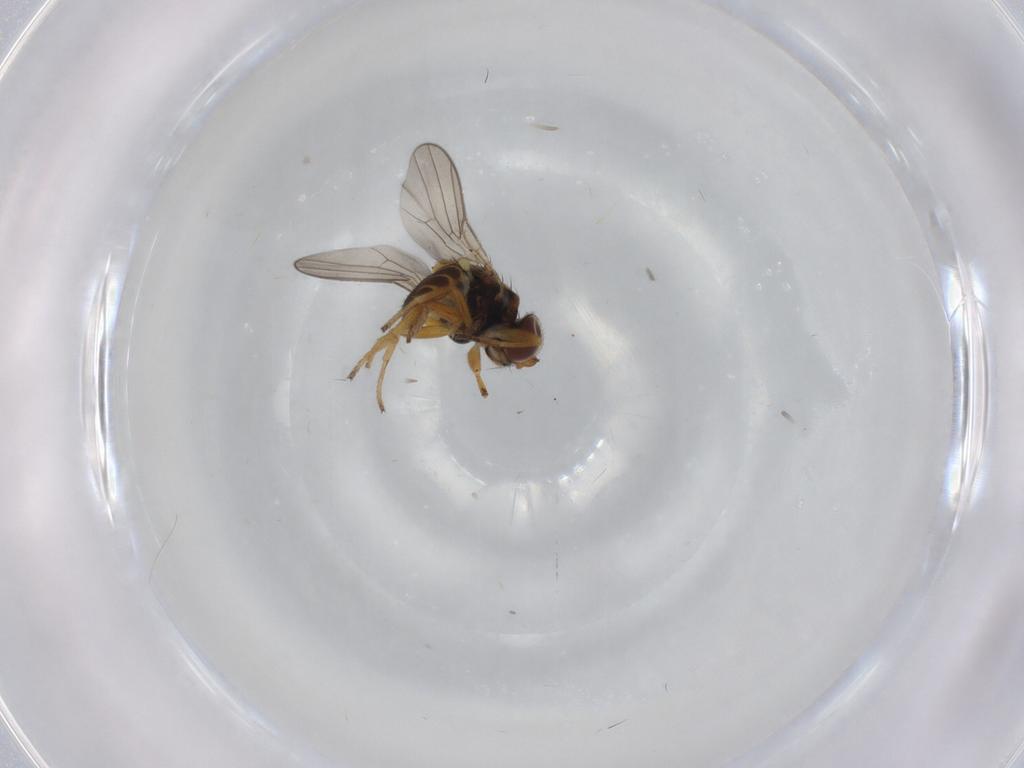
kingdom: Animalia
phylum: Arthropoda
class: Insecta
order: Diptera
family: Chloropidae
